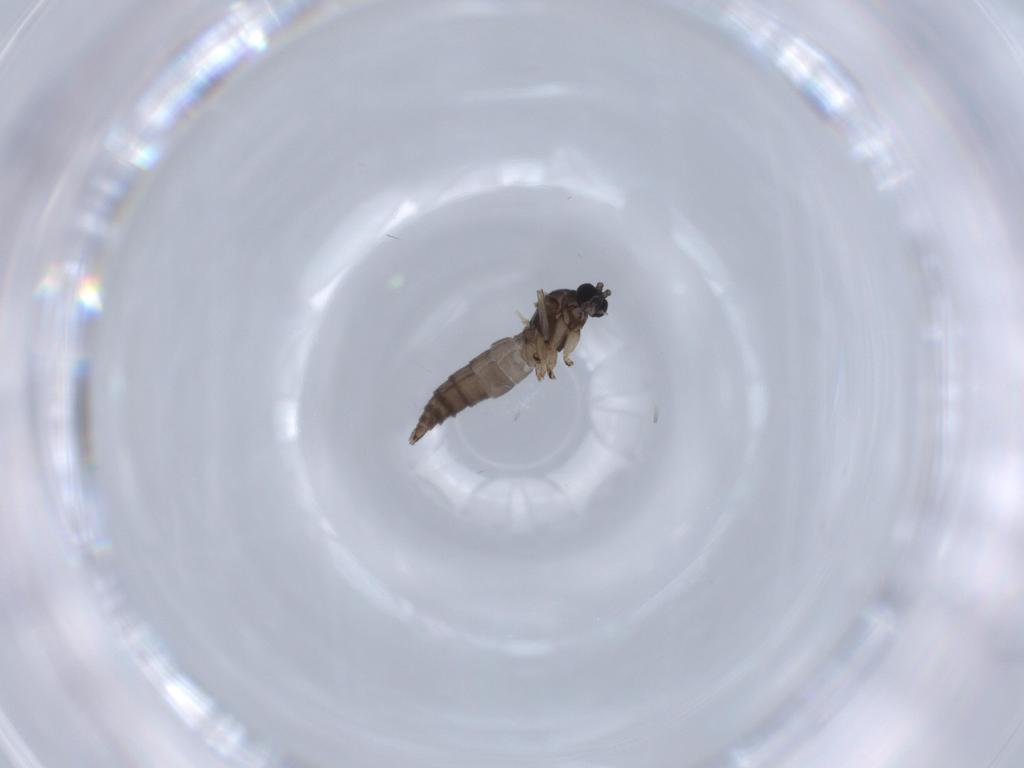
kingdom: Animalia
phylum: Arthropoda
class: Insecta
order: Diptera
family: Sciaridae
